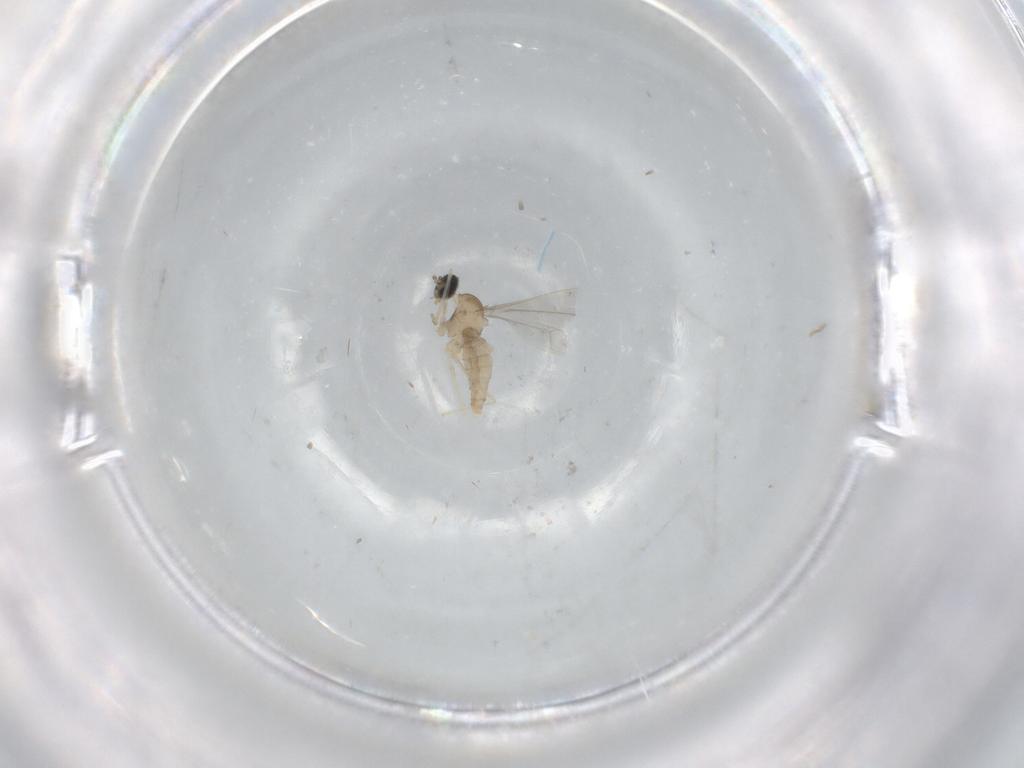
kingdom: Animalia
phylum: Arthropoda
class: Insecta
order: Diptera
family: Cecidomyiidae
